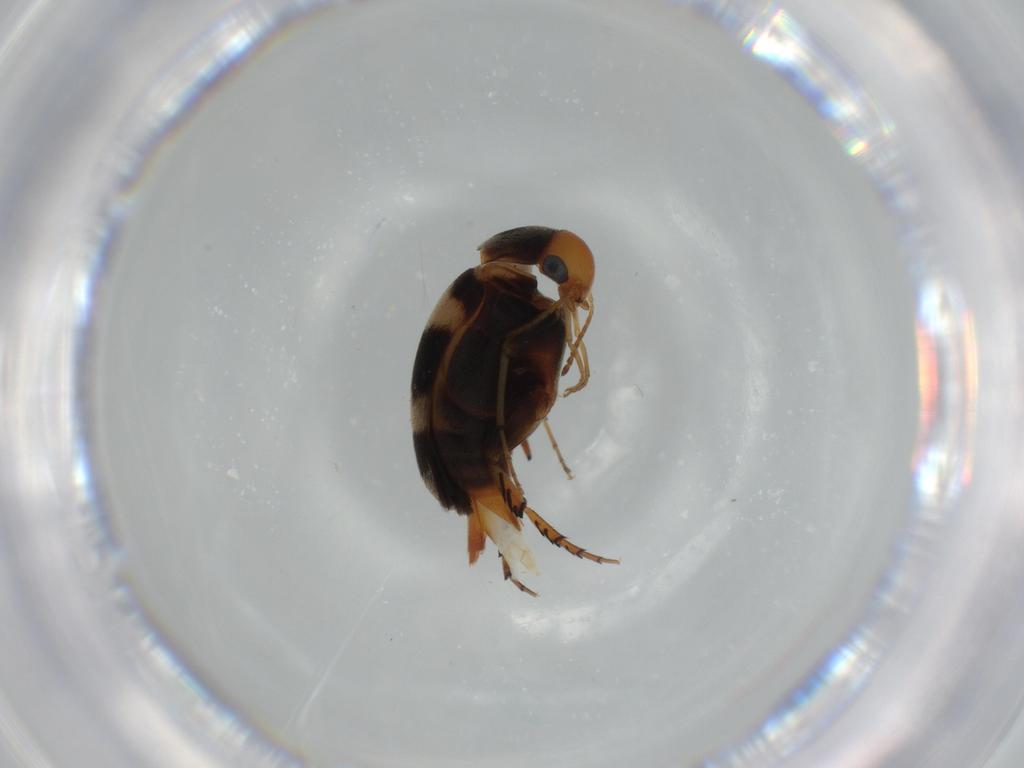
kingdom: Animalia
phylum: Arthropoda
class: Insecta
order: Coleoptera
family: Mordellidae
